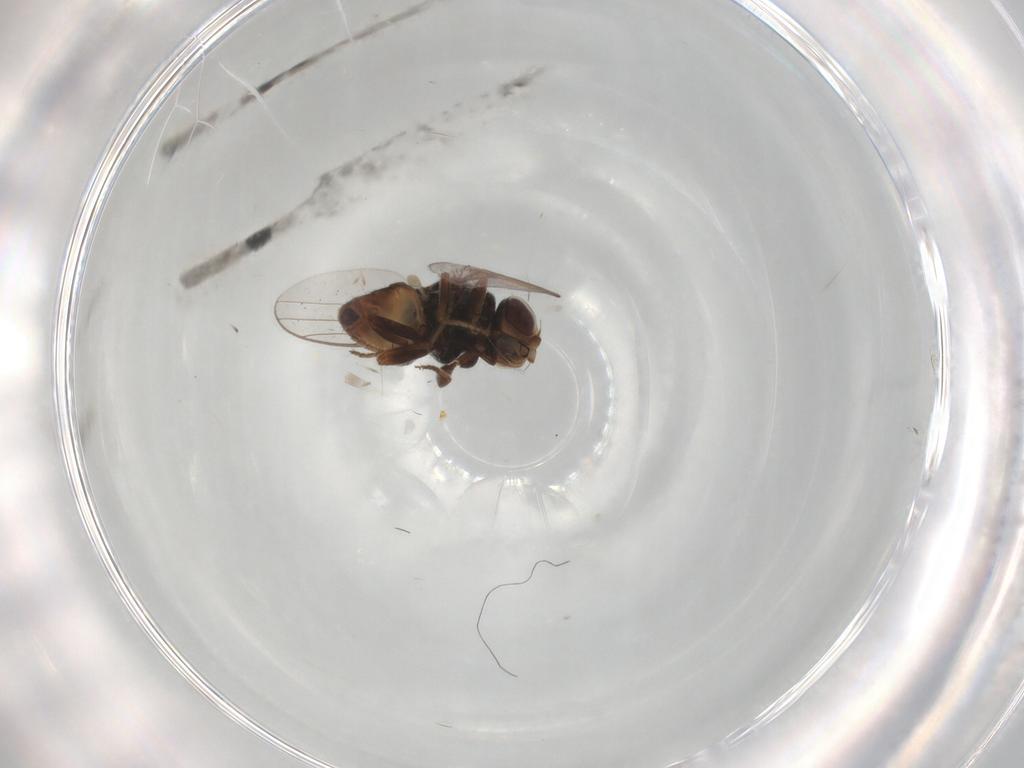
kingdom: Animalia
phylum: Arthropoda
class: Insecta
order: Diptera
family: Chloropidae
